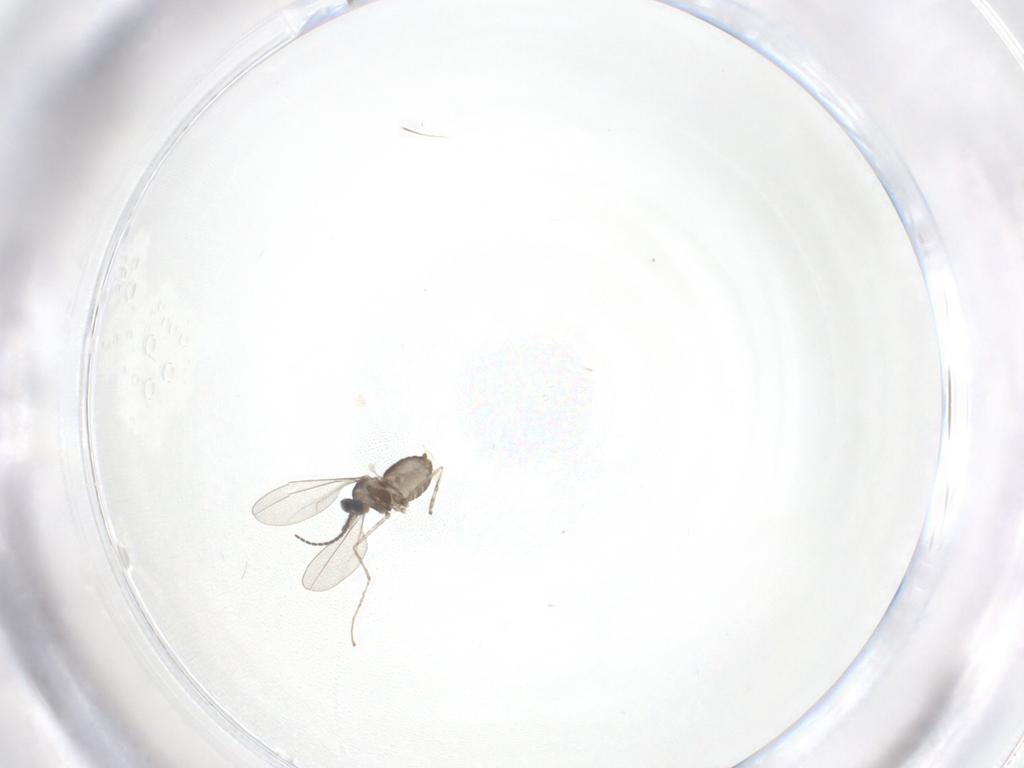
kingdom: Animalia
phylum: Arthropoda
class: Insecta
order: Diptera
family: Cecidomyiidae
